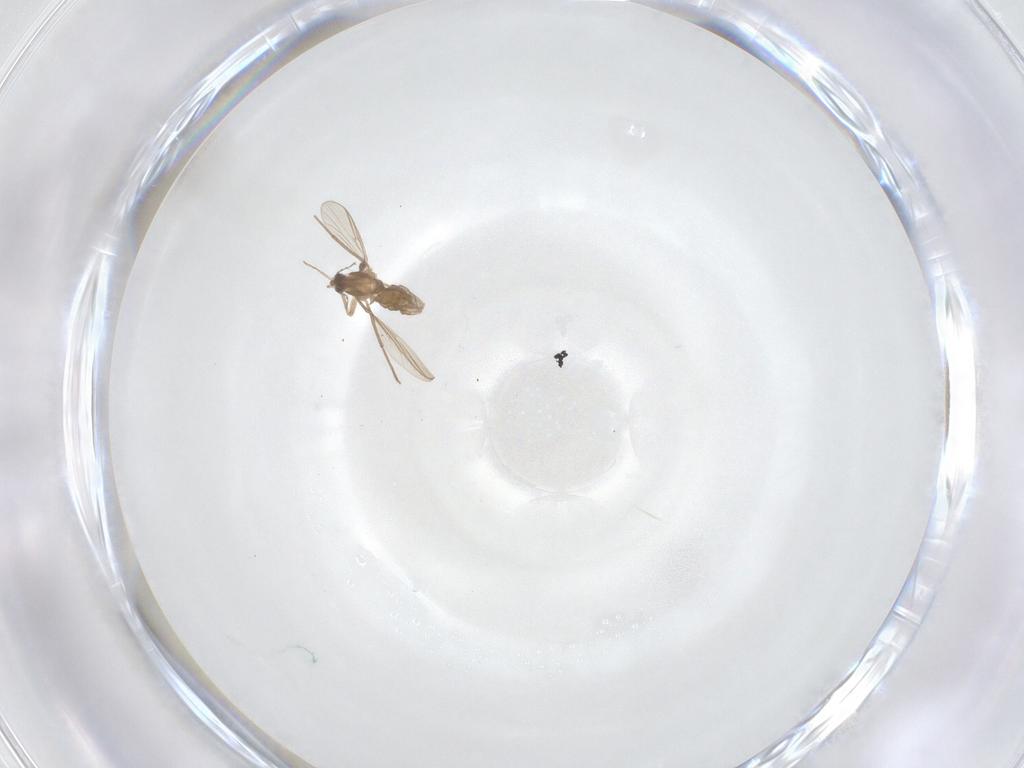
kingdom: Animalia
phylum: Arthropoda
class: Insecta
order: Diptera
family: Chironomidae
